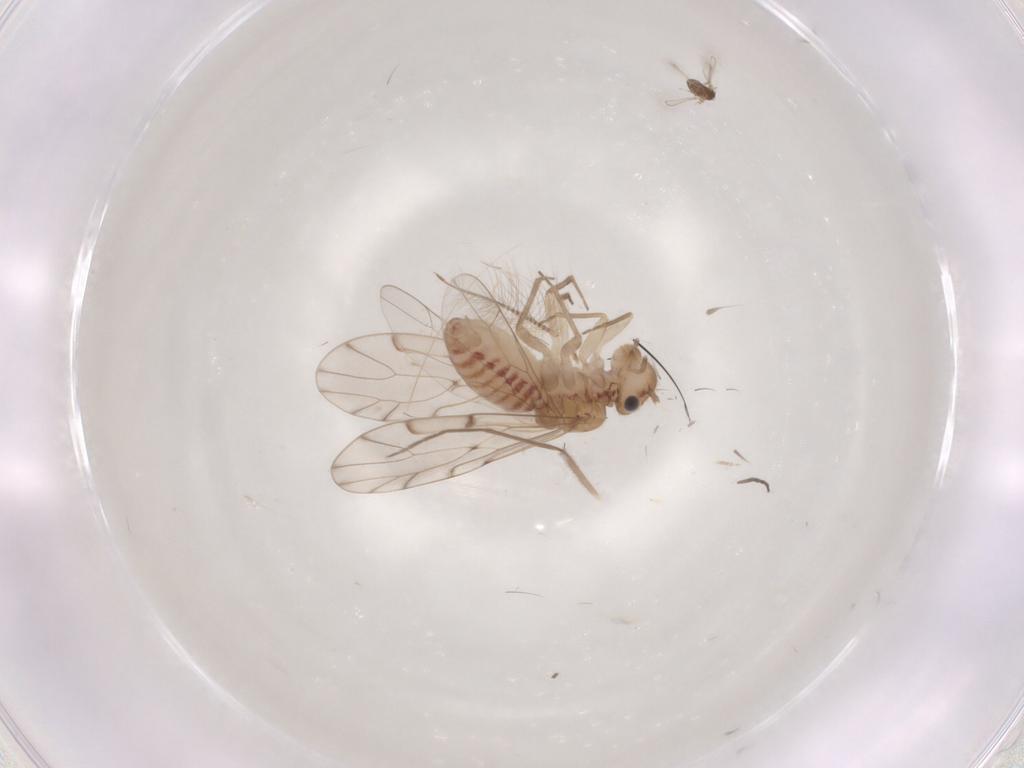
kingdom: Animalia
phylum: Arthropoda
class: Insecta
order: Diptera
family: Sciaridae
